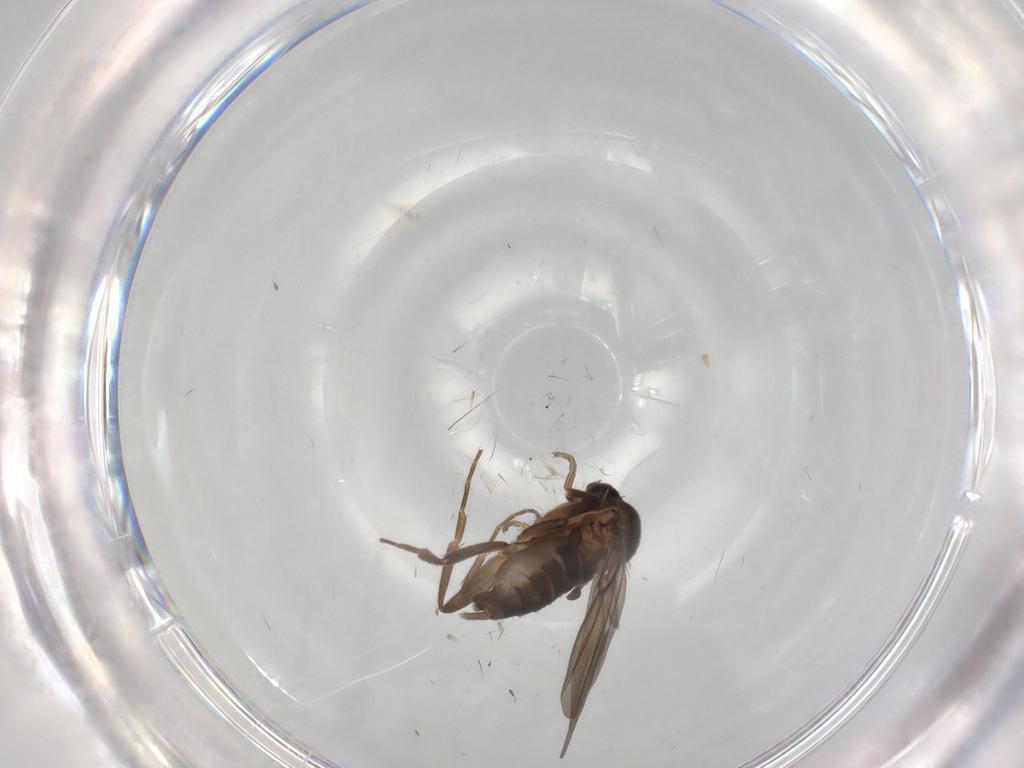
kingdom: Animalia
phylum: Arthropoda
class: Insecta
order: Diptera
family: Phoridae
